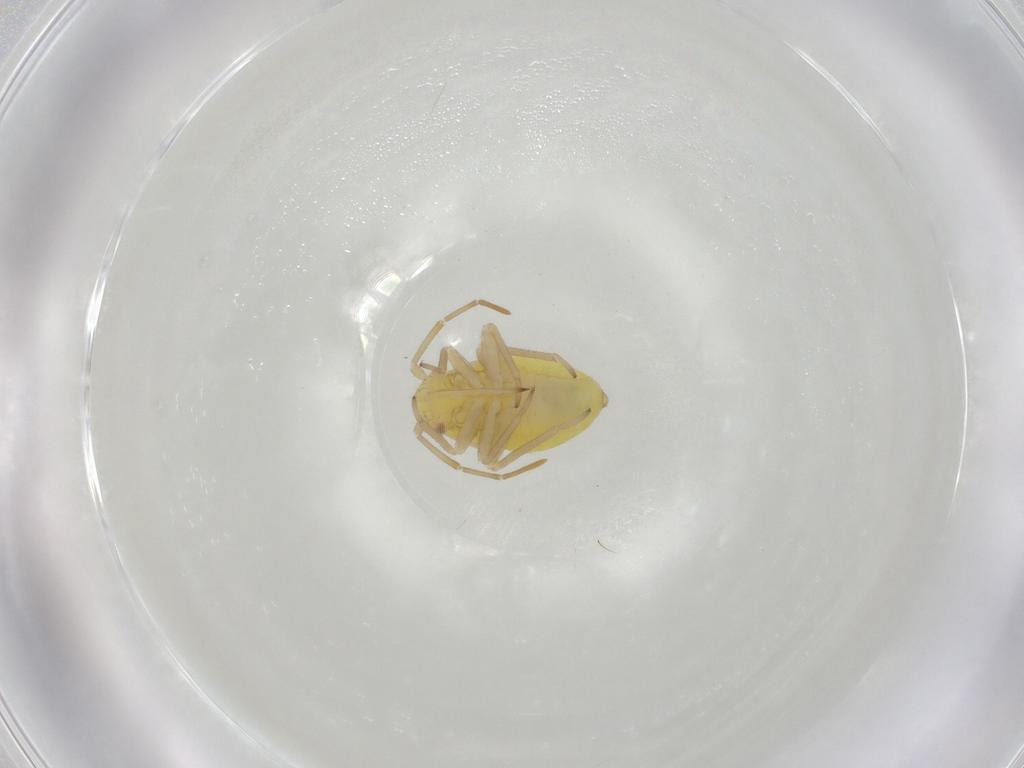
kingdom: Animalia
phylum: Arthropoda
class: Insecta
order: Hemiptera
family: Miridae
